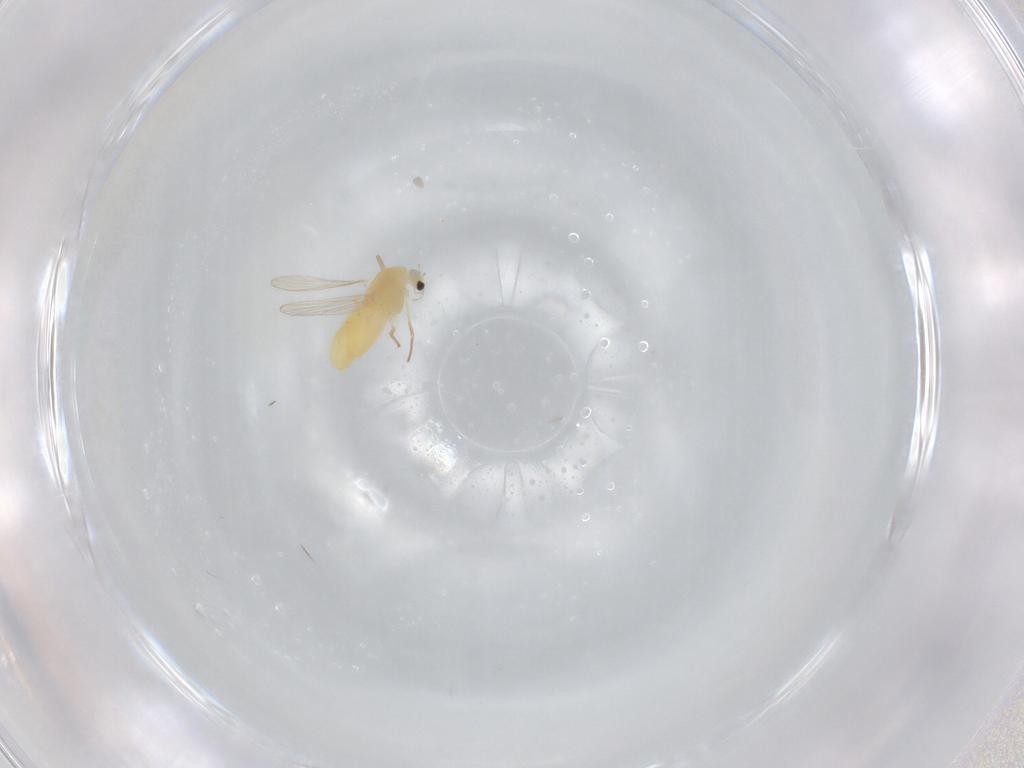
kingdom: Animalia
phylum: Arthropoda
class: Insecta
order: Diptera
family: Chironomidae
